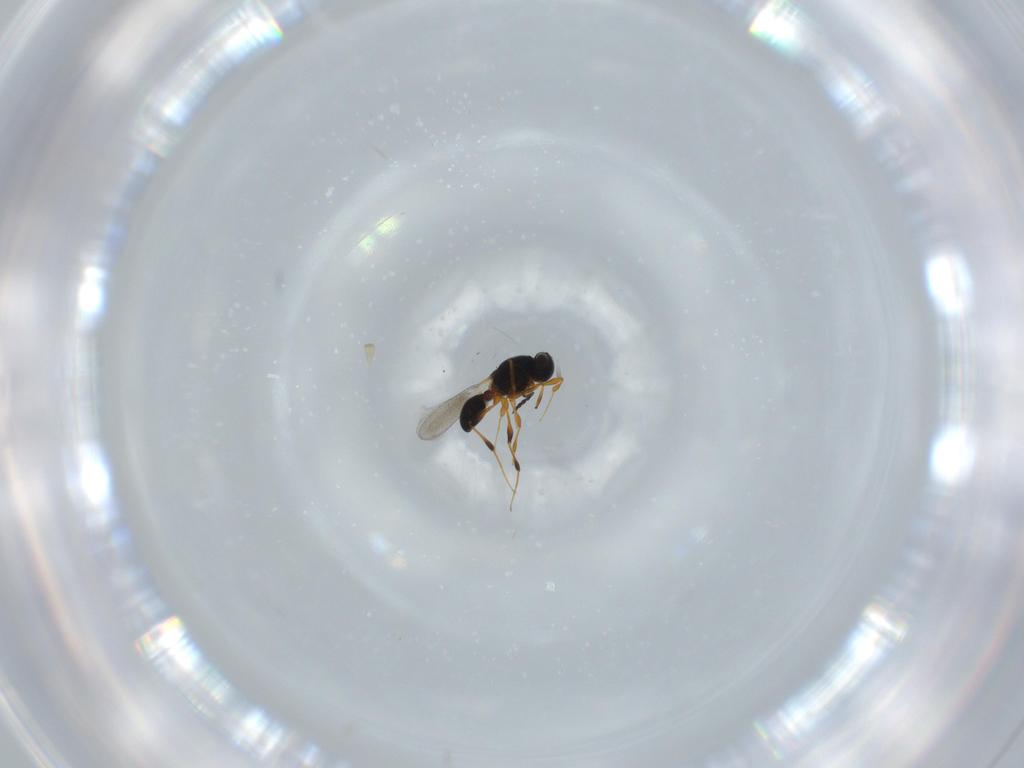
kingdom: Animalia
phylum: Arthropoda
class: Insecta
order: Hymenoptera
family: Platygastridae
